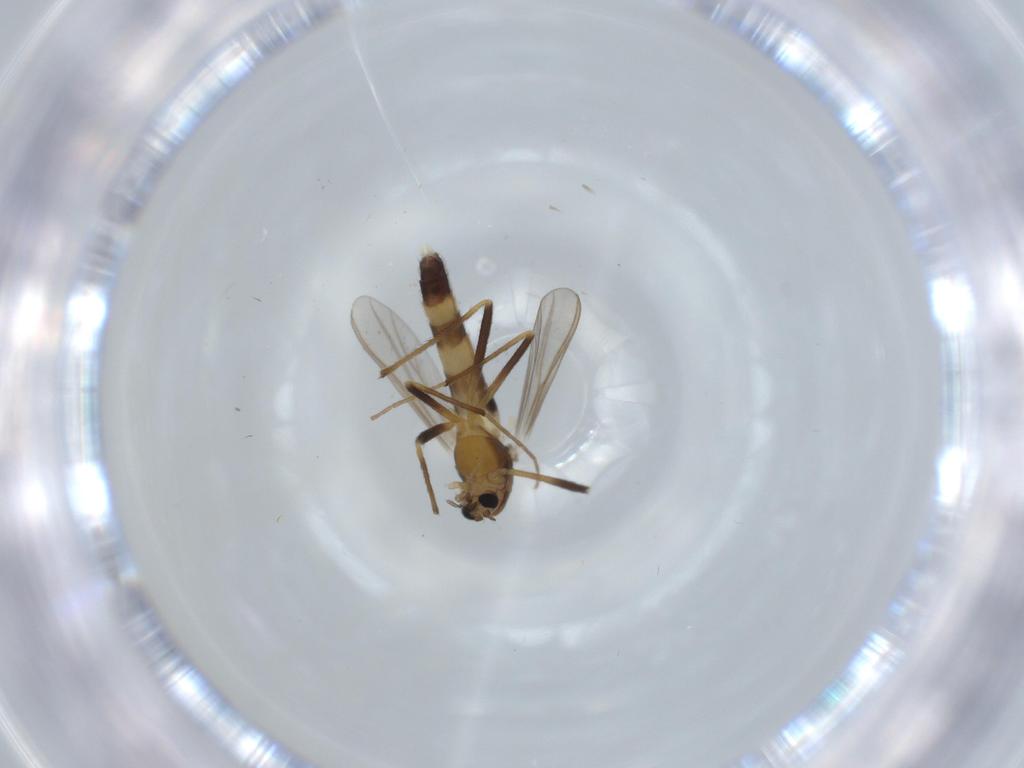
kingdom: Animalia
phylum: Arthropoda
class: Insecta
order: Diptera
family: Chironomidae
